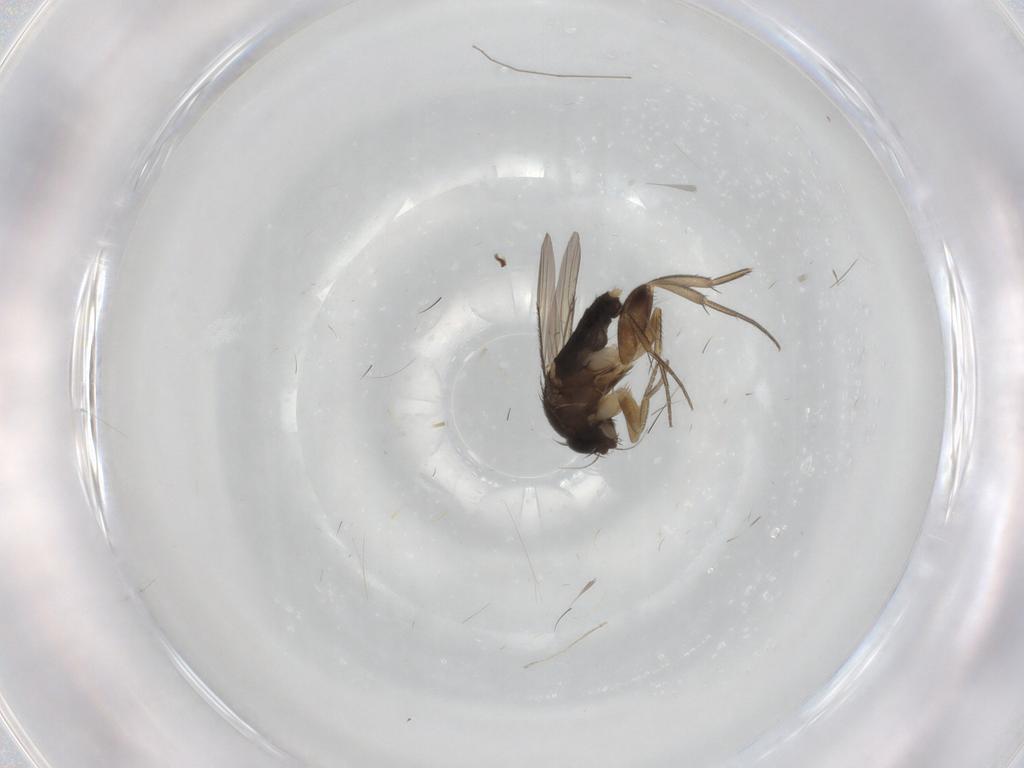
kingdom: Animalia
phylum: Arthropoda
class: Insecta
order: Diptera
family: Phoridae
